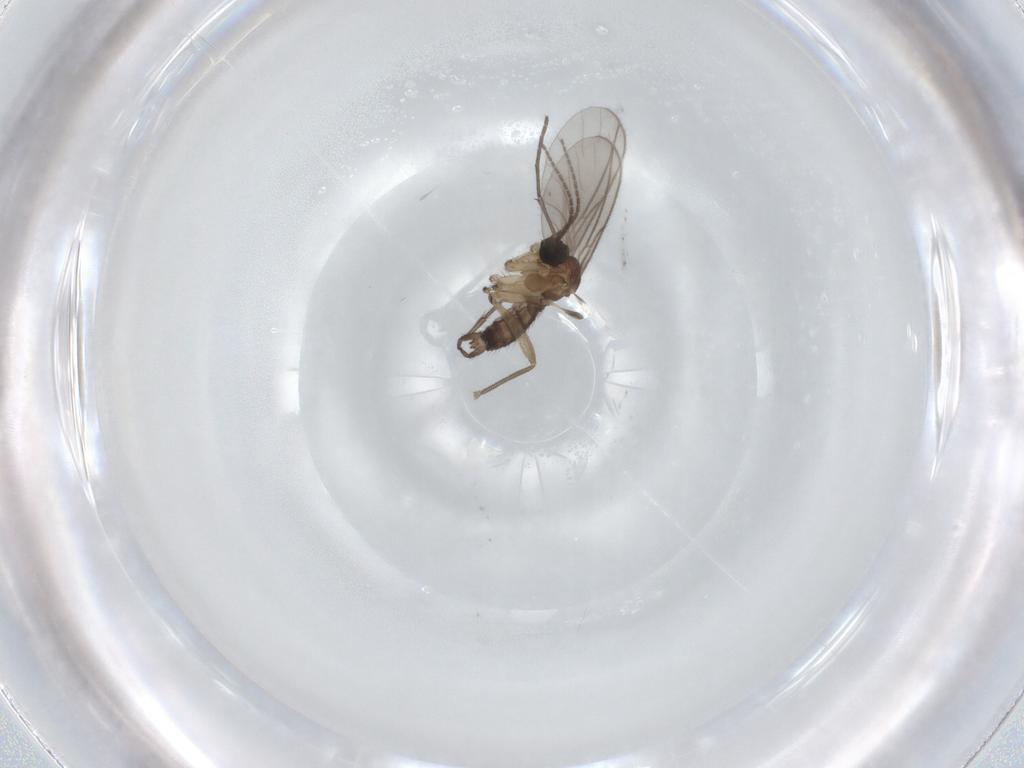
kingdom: Animalia
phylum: Arthropoda
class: Insecta
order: Diptera
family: Sciaridae
